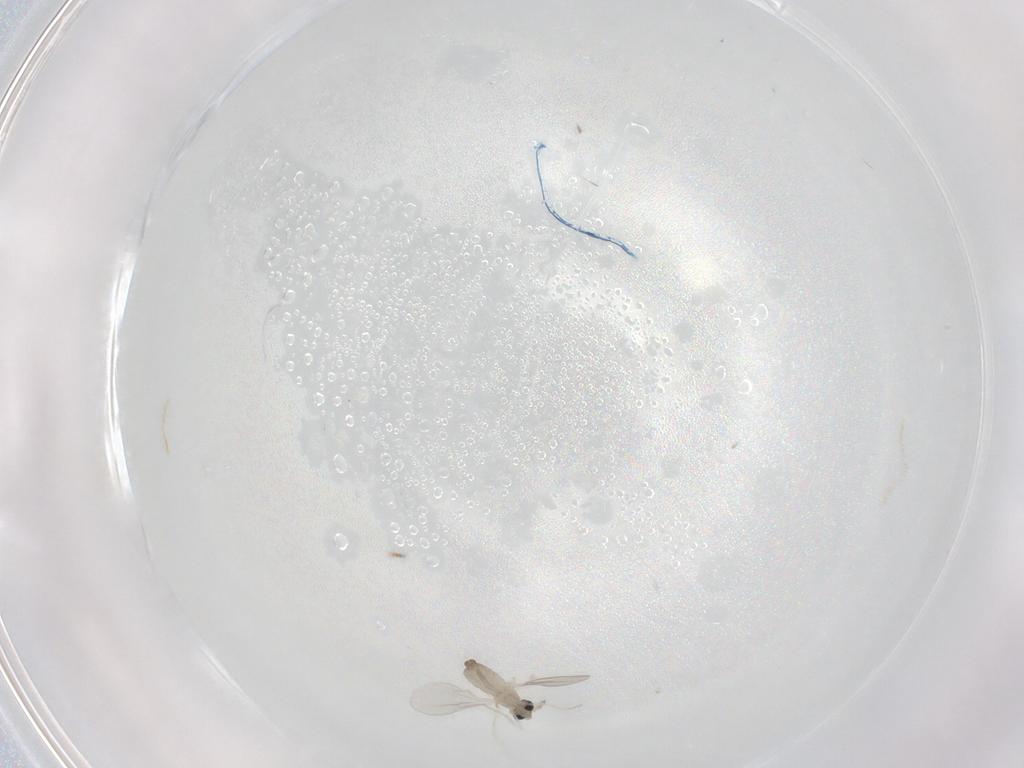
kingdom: Animalia
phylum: Arthropoda
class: Insecta
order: Diptera
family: Cecidomyiidae
